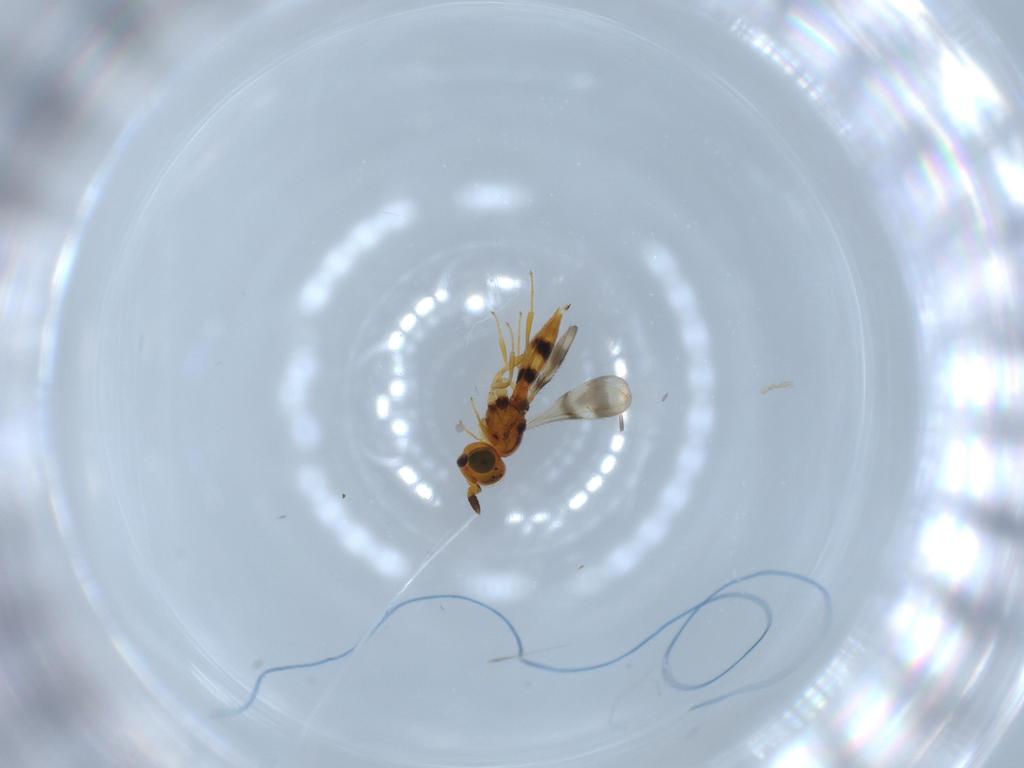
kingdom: Animalia
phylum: Arthropoda
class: Insecta
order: Hymenoptera
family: Scelionidae
